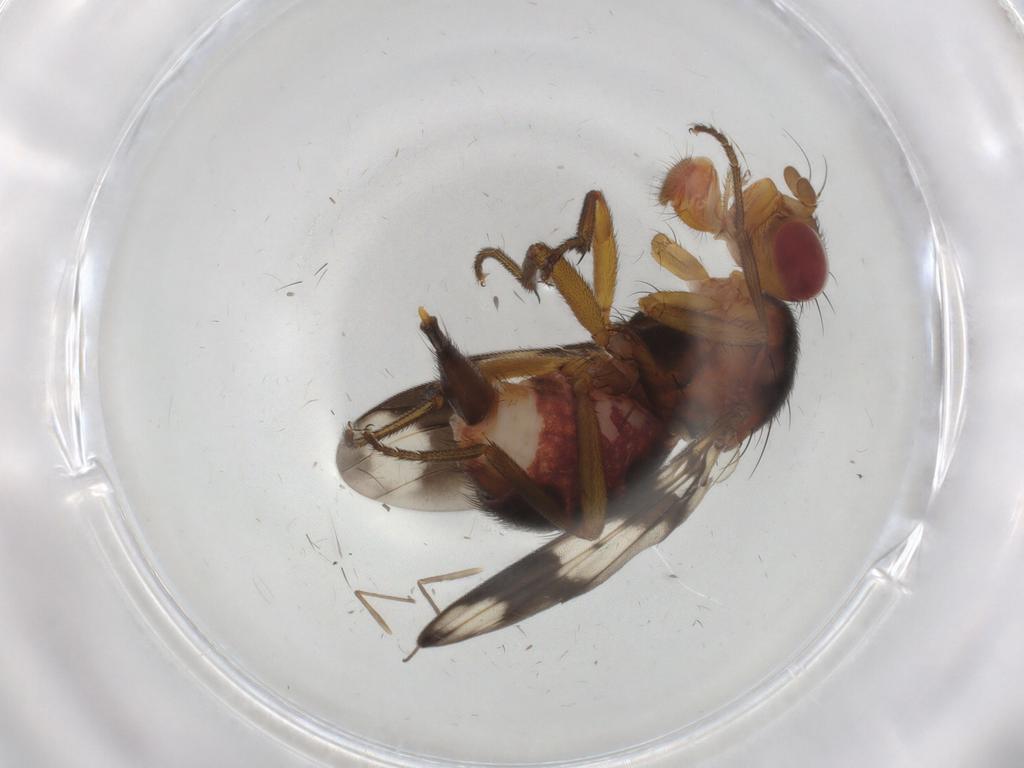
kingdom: Animalia
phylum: Arthropoda
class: Insecta
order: Diptera
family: Richardiidae
